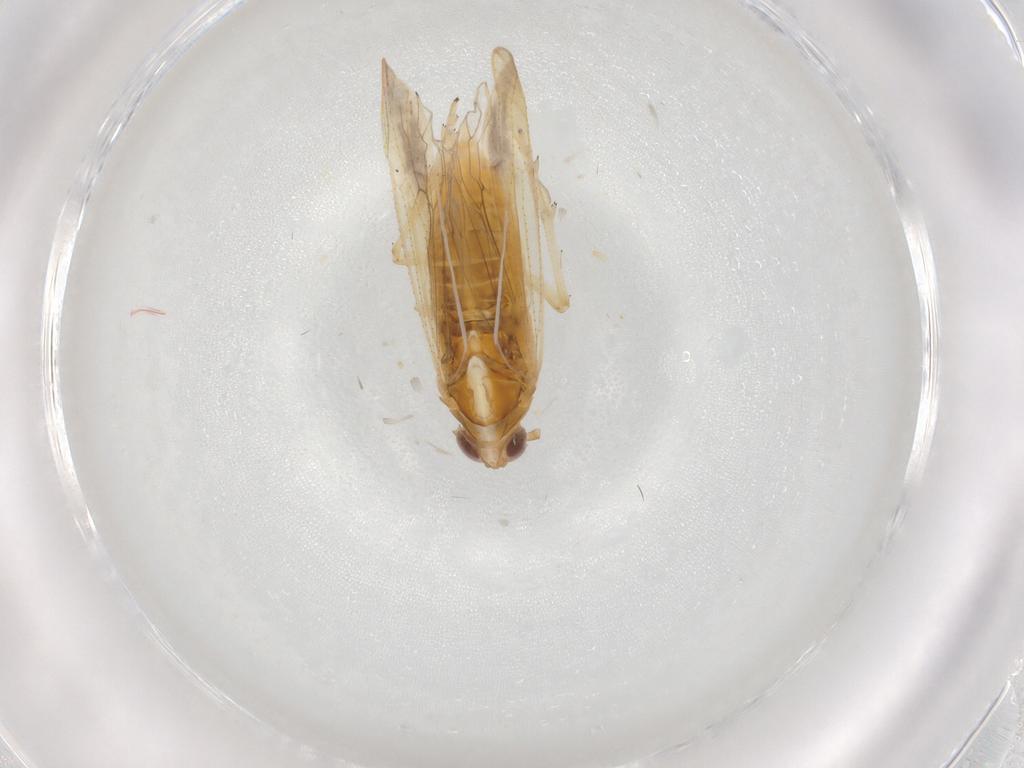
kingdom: Animalia
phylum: Arthropoda
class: Insecta
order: Hemiptera
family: Delphacidae
